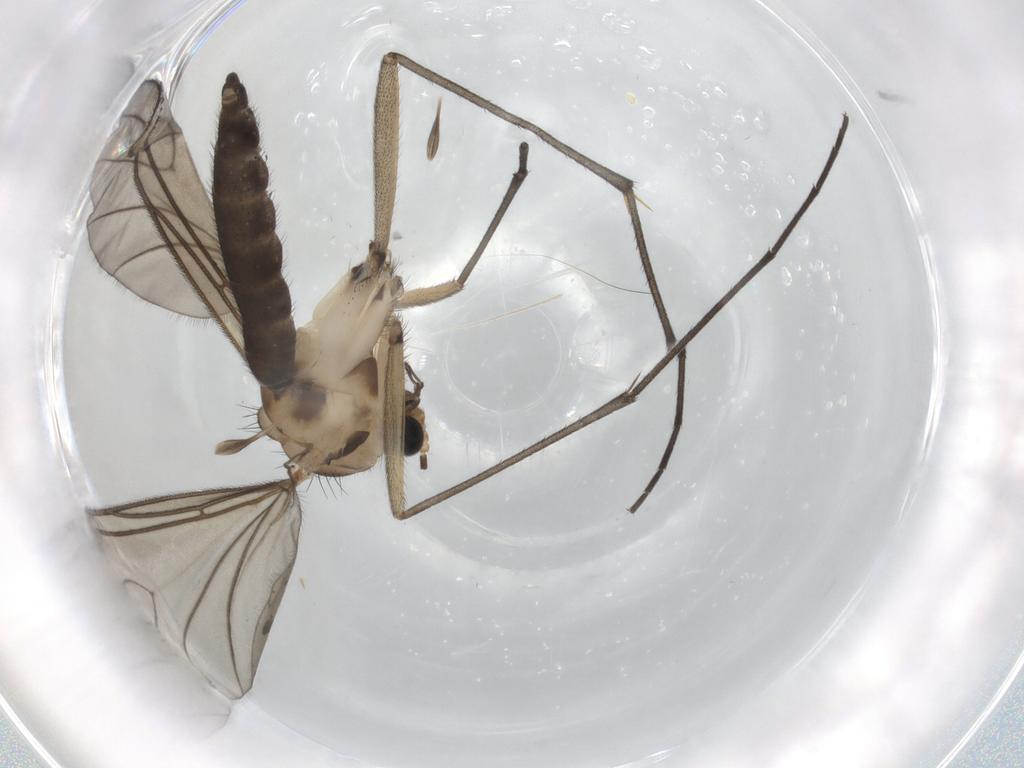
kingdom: Animalia
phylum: Arthropoda
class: Insecta
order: Diptera
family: Sciaridae
